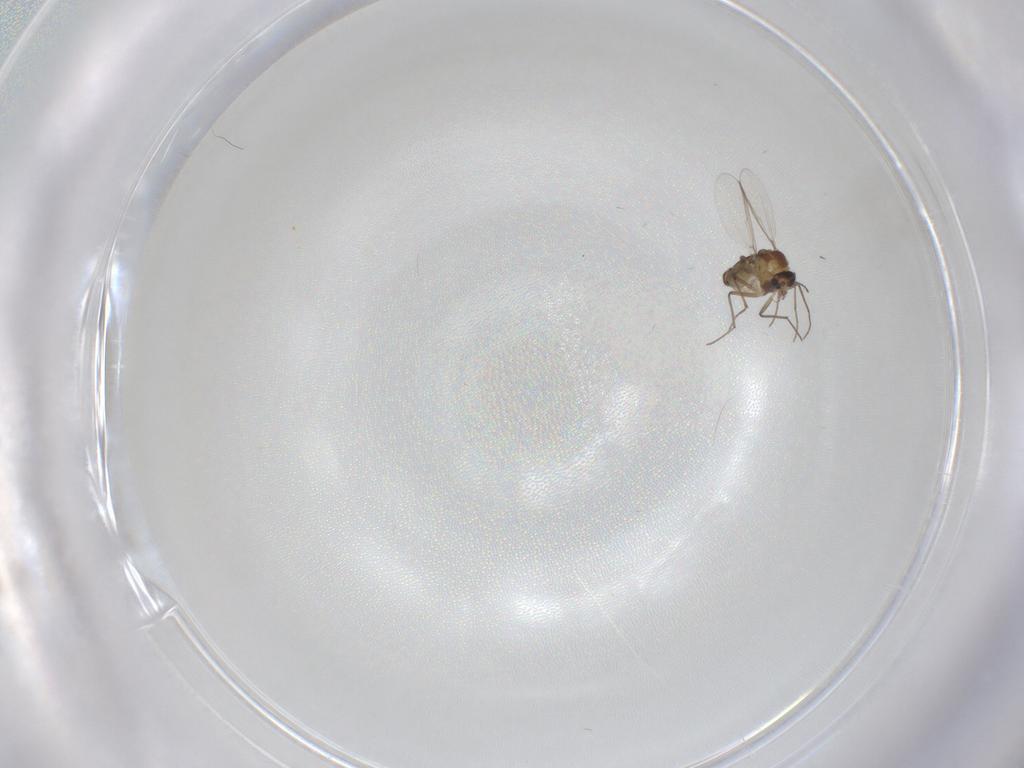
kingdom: Animalia
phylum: Arthropoda
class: Insecta
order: Diptera
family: Chironomidae
